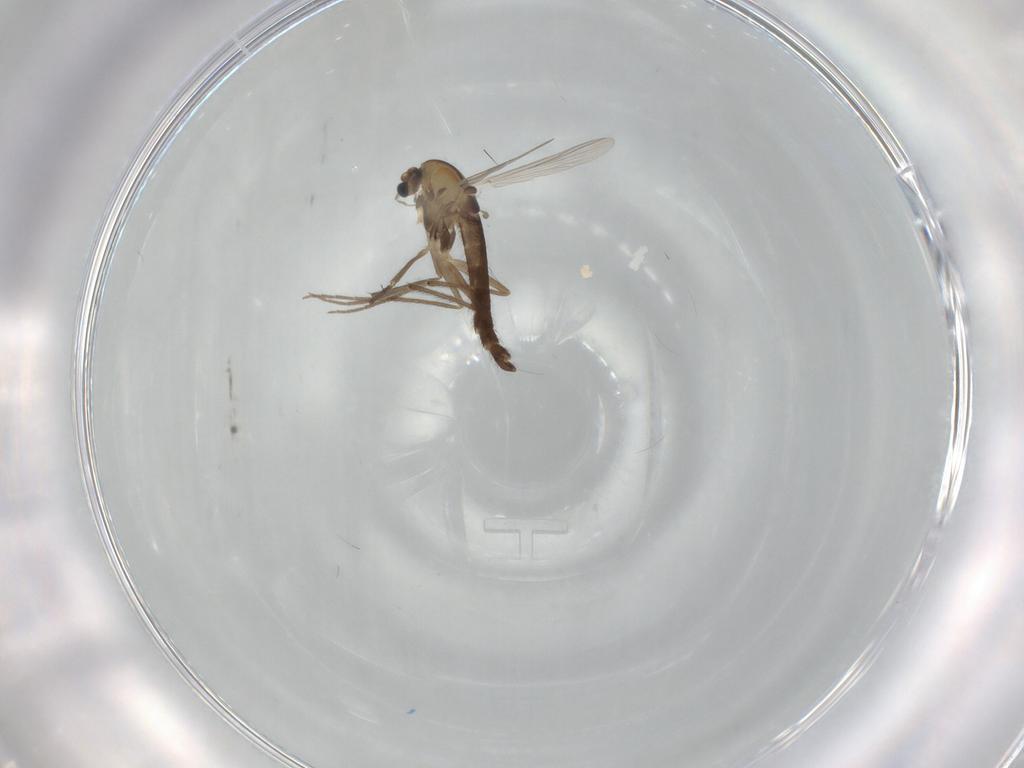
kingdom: Animalia
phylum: Arthropoda
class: Insecta
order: Diptera
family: Chironomidae
